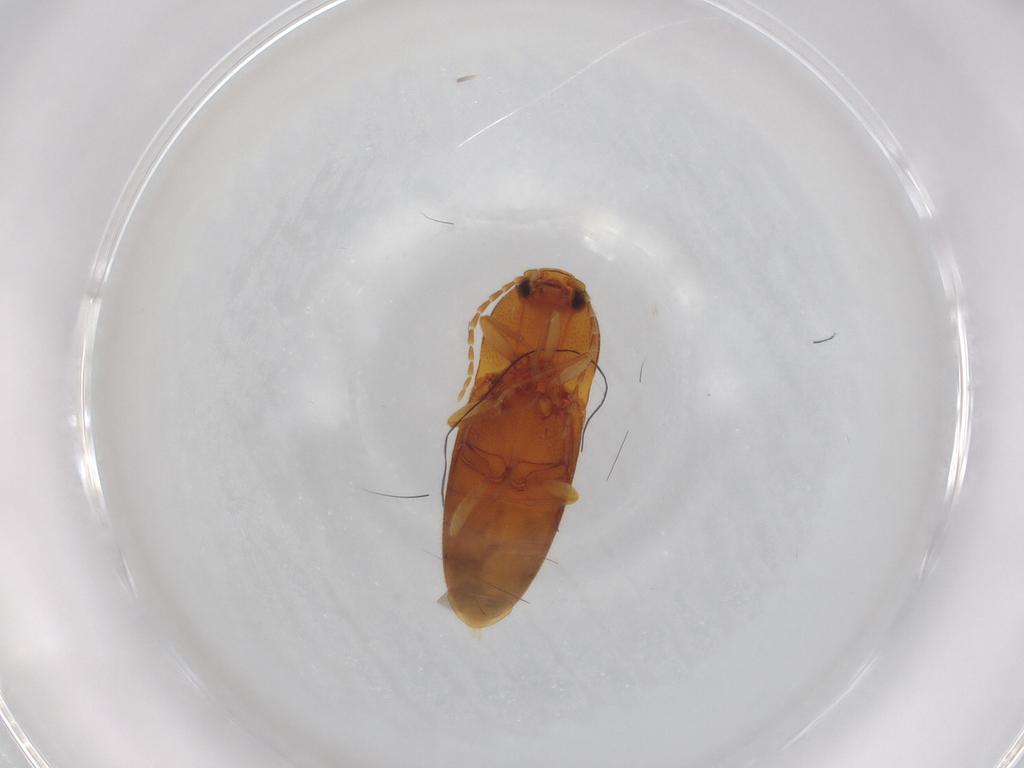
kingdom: Animalia
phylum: Arthropoda
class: Insecta
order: Coleoptera
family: Elateridae
